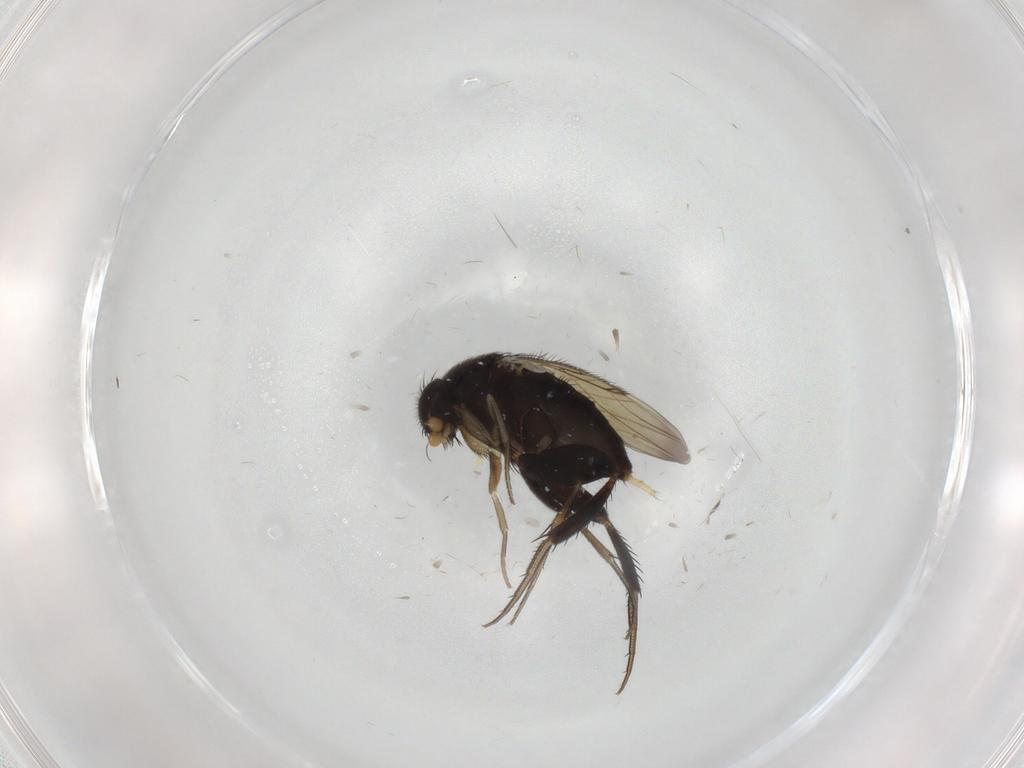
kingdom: Animalia
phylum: Arthropoda
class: Insecta
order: Diptera
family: Phoridae
